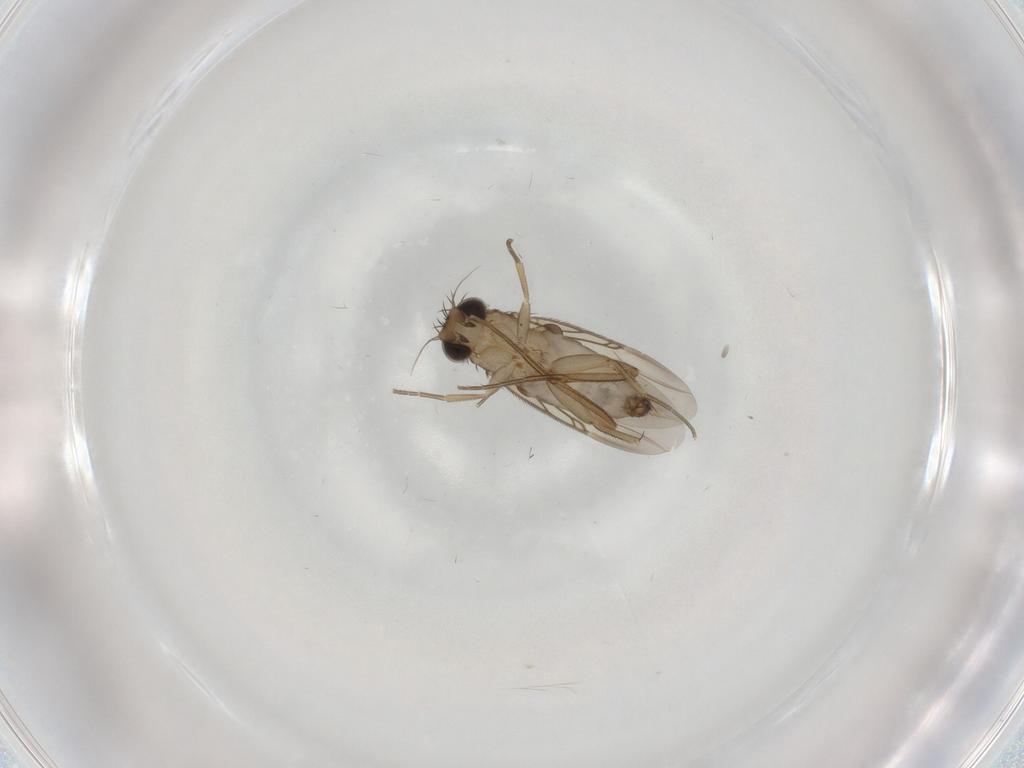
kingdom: Animalia
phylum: Arthropoda
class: Insecta
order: Diptera
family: Phoridae
